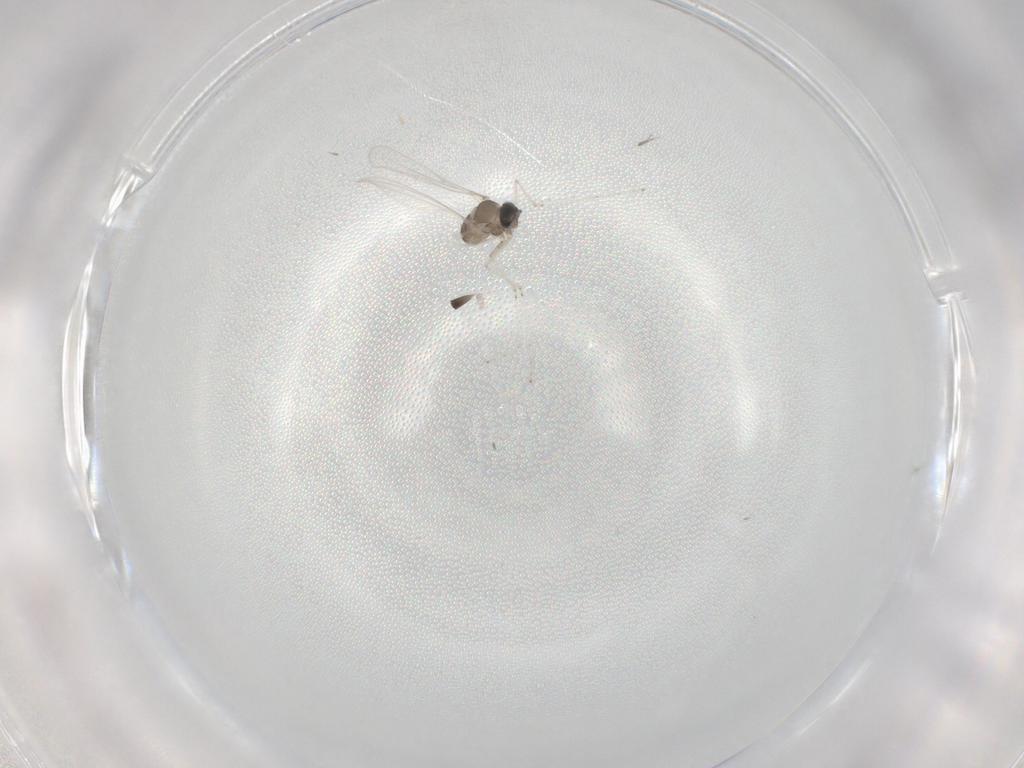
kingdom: Animalia
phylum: Arthropoda
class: Insecta
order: Diptera
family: Cecidomyiidae
